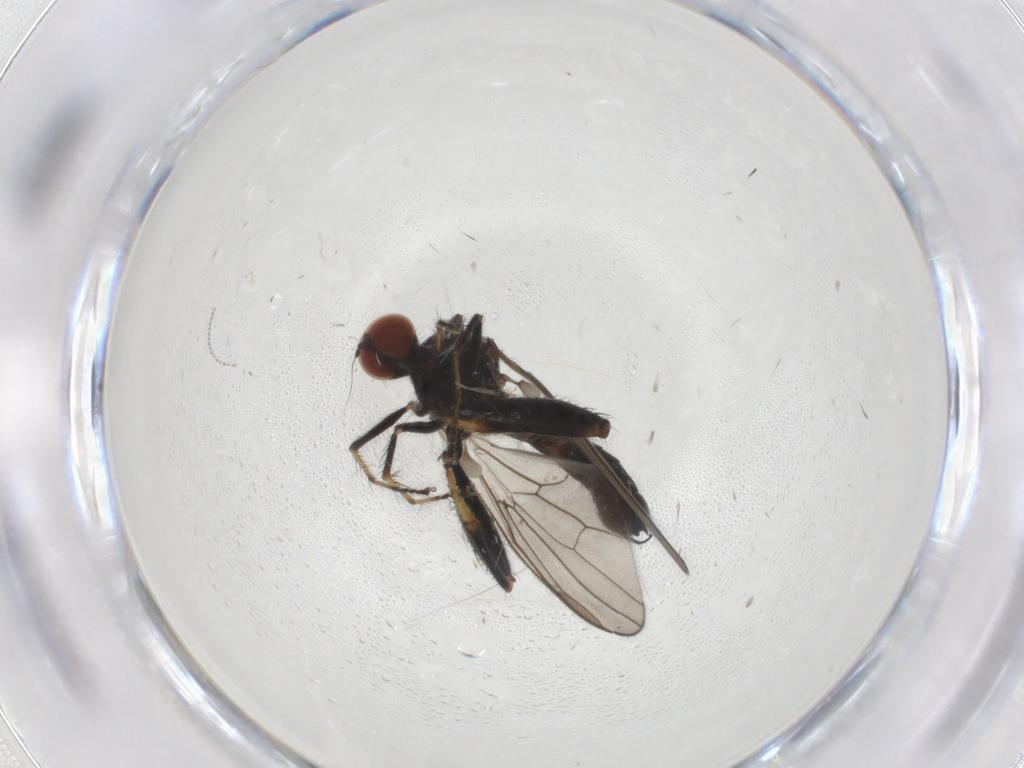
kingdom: Animalia
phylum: Arthropoda
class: Insecta
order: Diptera
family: Hybotidae
